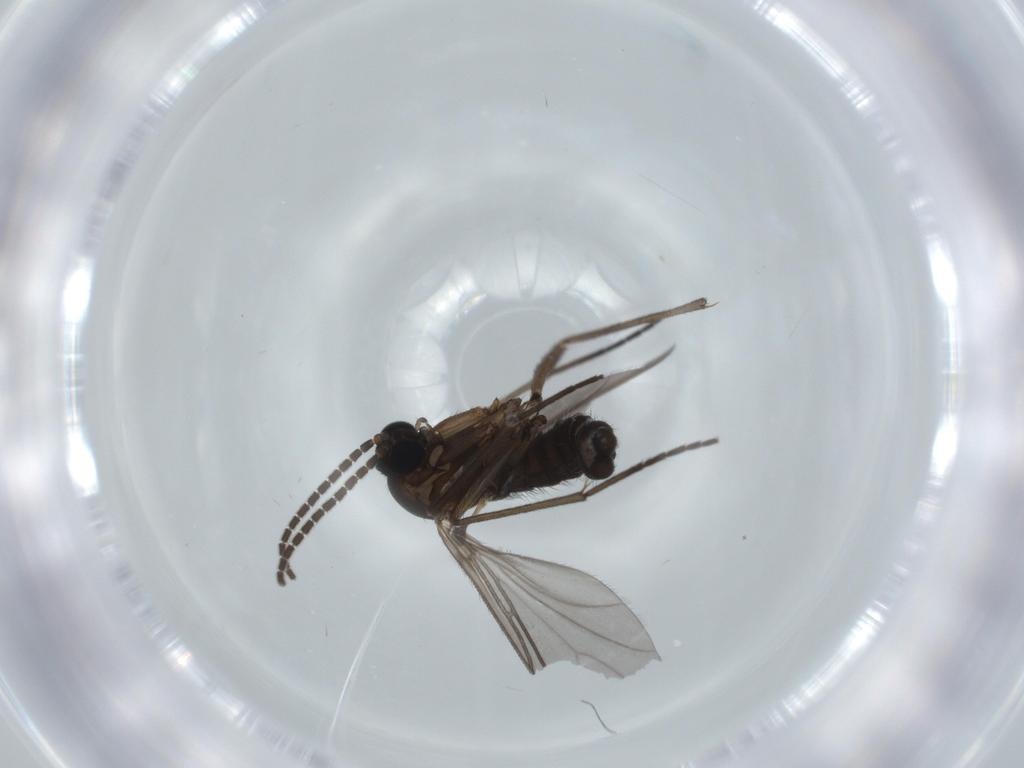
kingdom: Animalia
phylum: Arthropoda
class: Insecta
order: Diptera
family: Sciaridae
